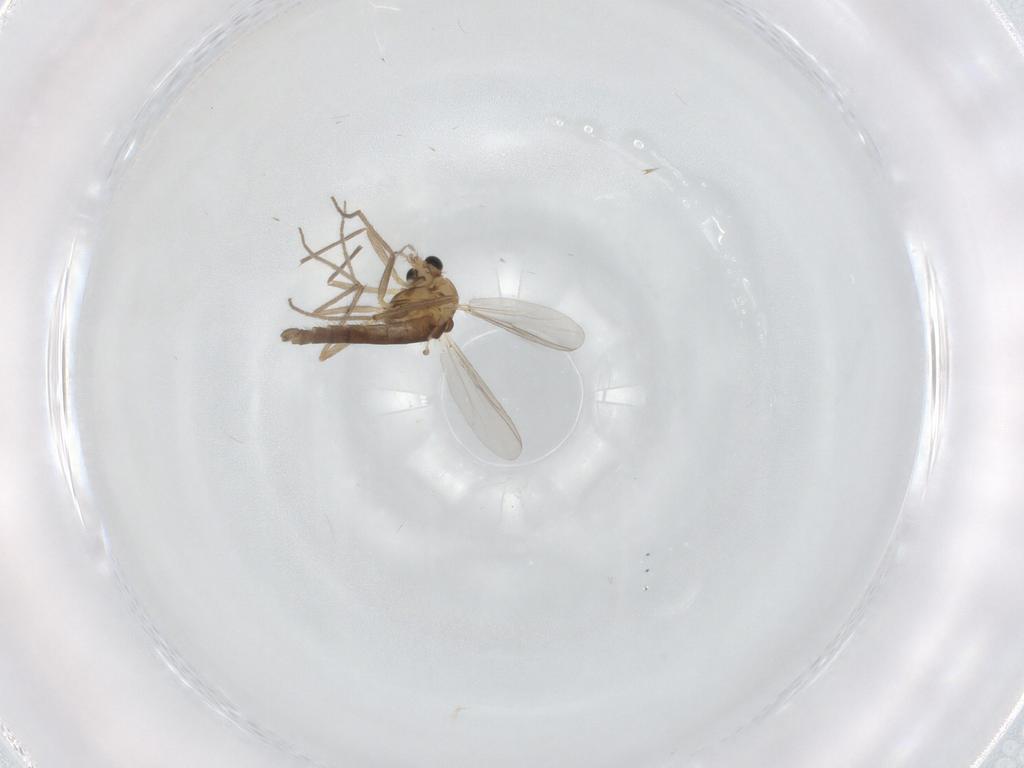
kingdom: Animalia
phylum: Arthropoda
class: Insecta
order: Diptera
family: Chironomidae
